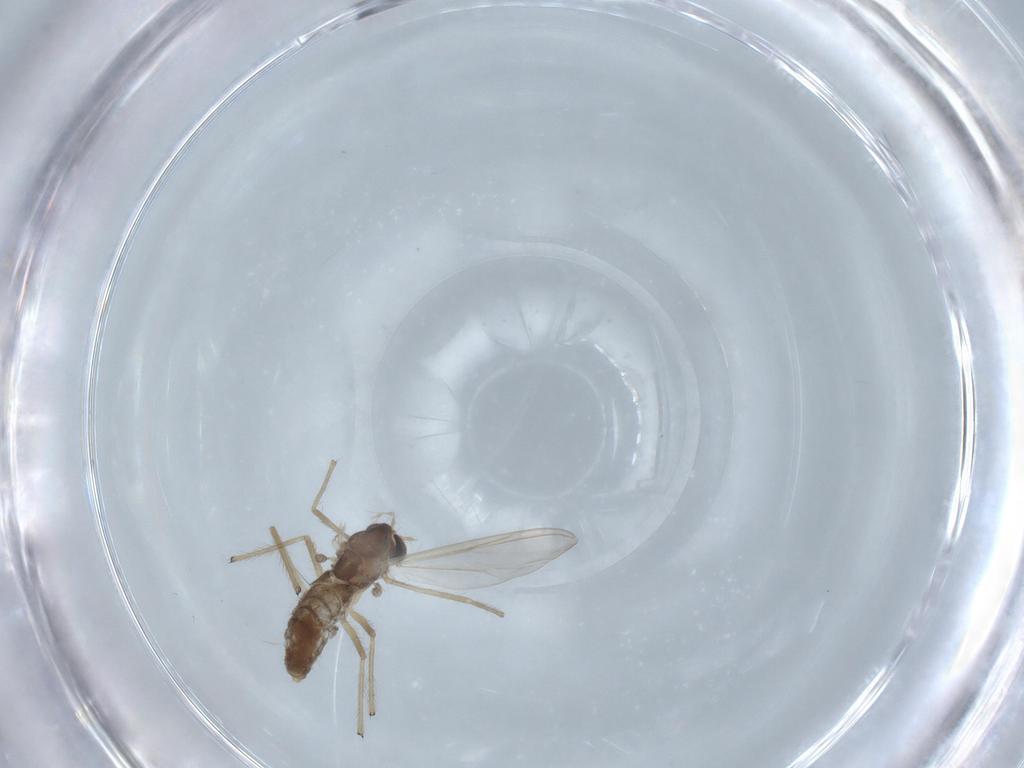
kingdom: Animalia
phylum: Arthropoda
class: Insecta
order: Diptera
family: Chironomidae
